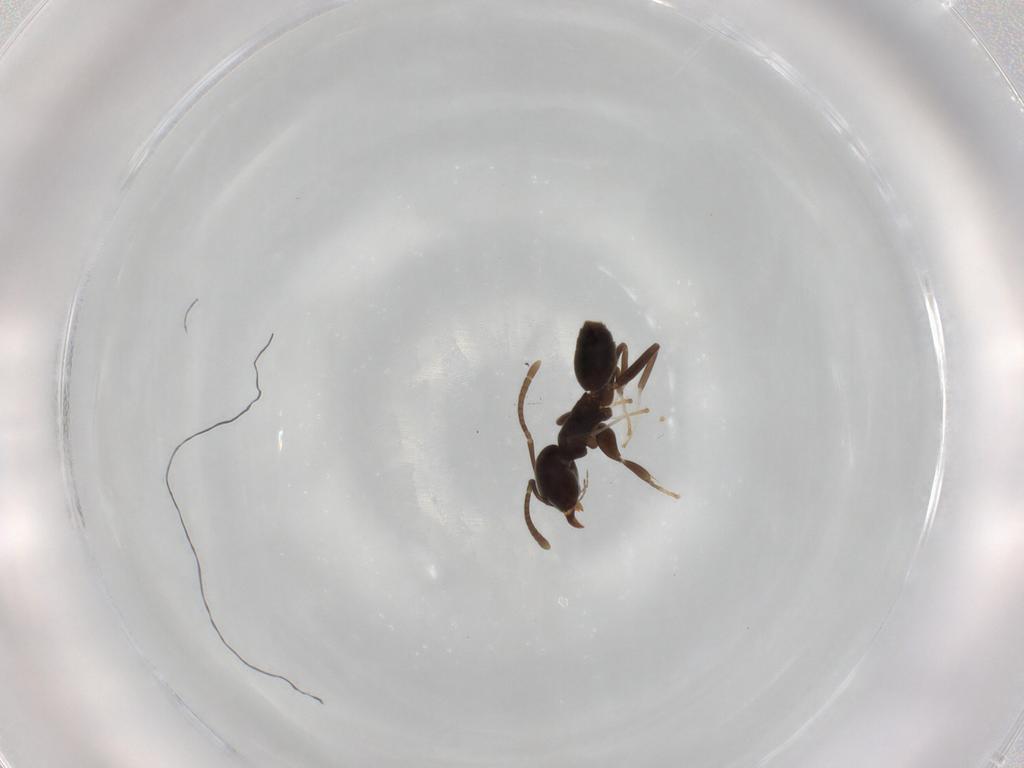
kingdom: Animalia
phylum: Arthropoda
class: Insecta
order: Hymenoptera
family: Formicidae
